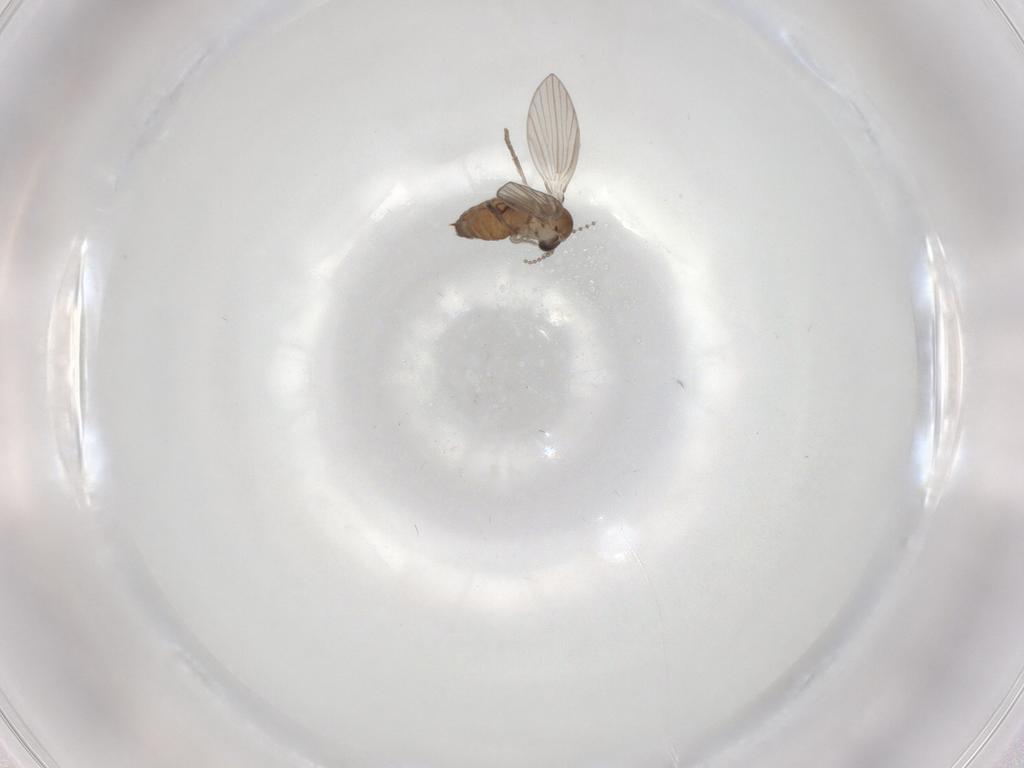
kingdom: Animalia
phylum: Arthropoda
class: Insecta
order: Diptera
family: Psychodidae
